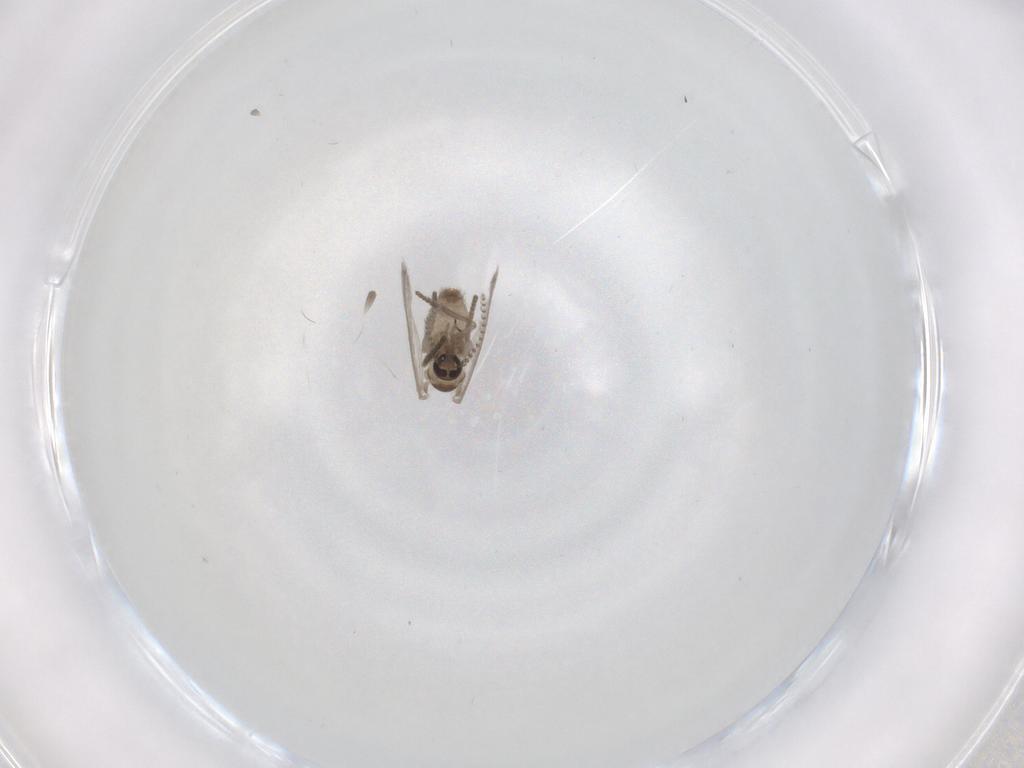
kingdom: Animalia
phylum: Arthropoda
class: Insecta
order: Diptera
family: Psychodidae
